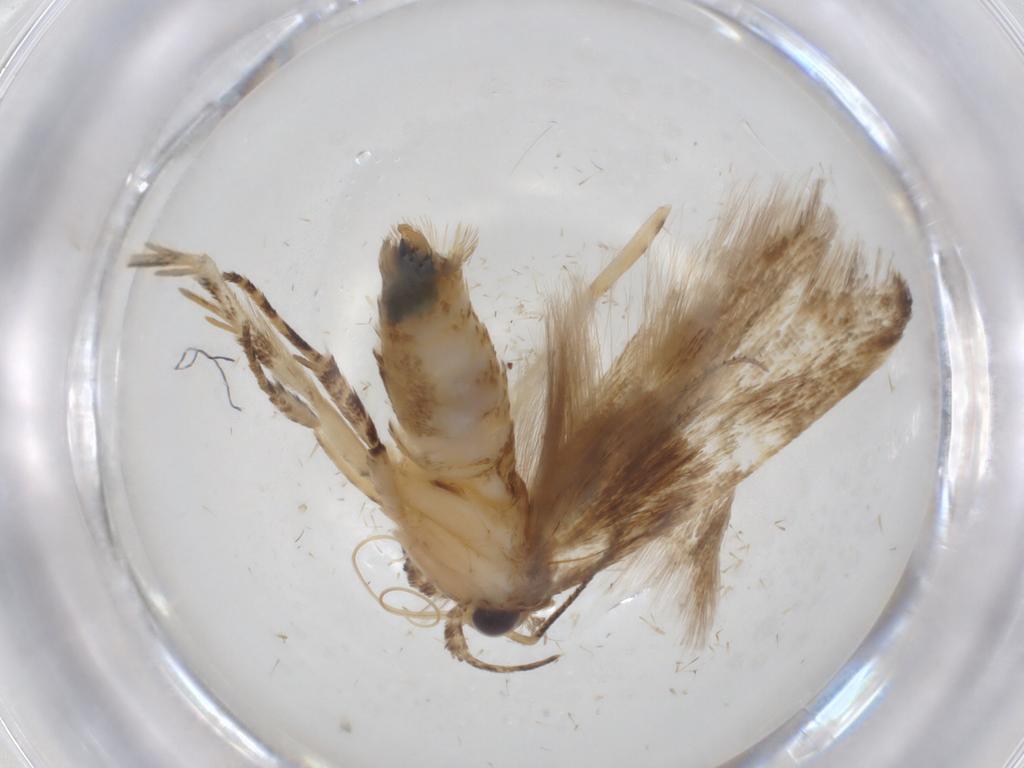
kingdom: Animalia
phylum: Arthropoda
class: Insecta
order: Lepidoptera
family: Gelechiidae
